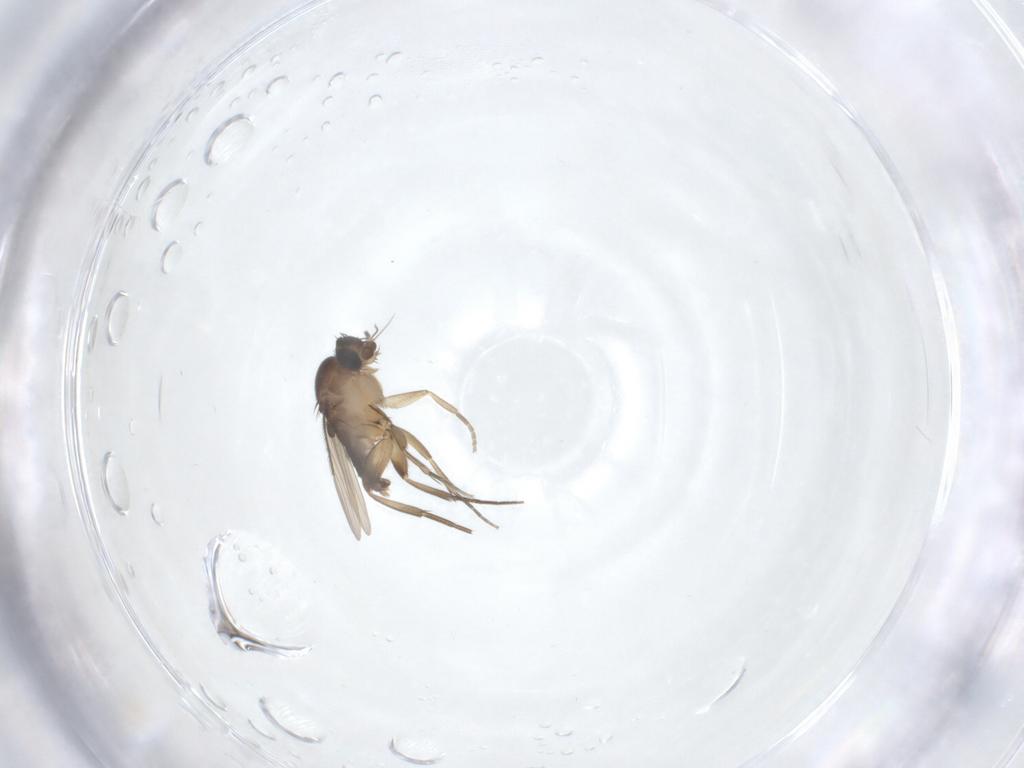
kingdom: Animalia
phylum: Arthropoda
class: Insecta
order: Diptera
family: Phoridae
